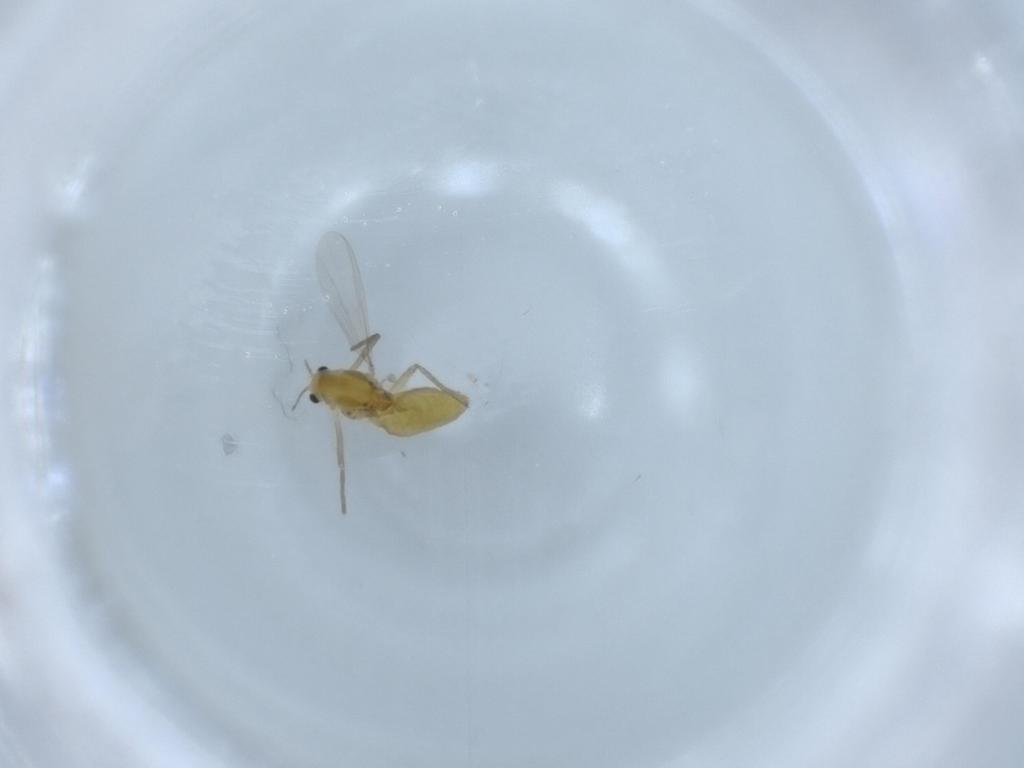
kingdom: Animalia
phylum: Arthropoda
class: Insecta
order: Diptera
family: Chironomidae
